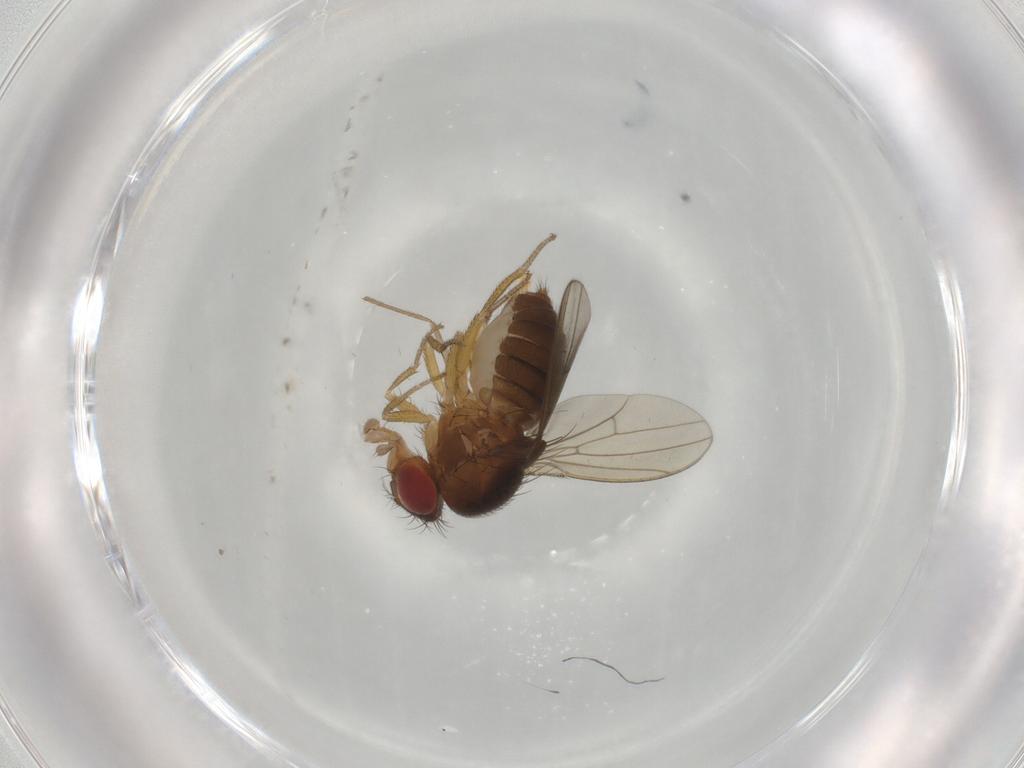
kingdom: Animalia
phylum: Arthropoda
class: Insecta
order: Diptera
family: Drosophilidae
